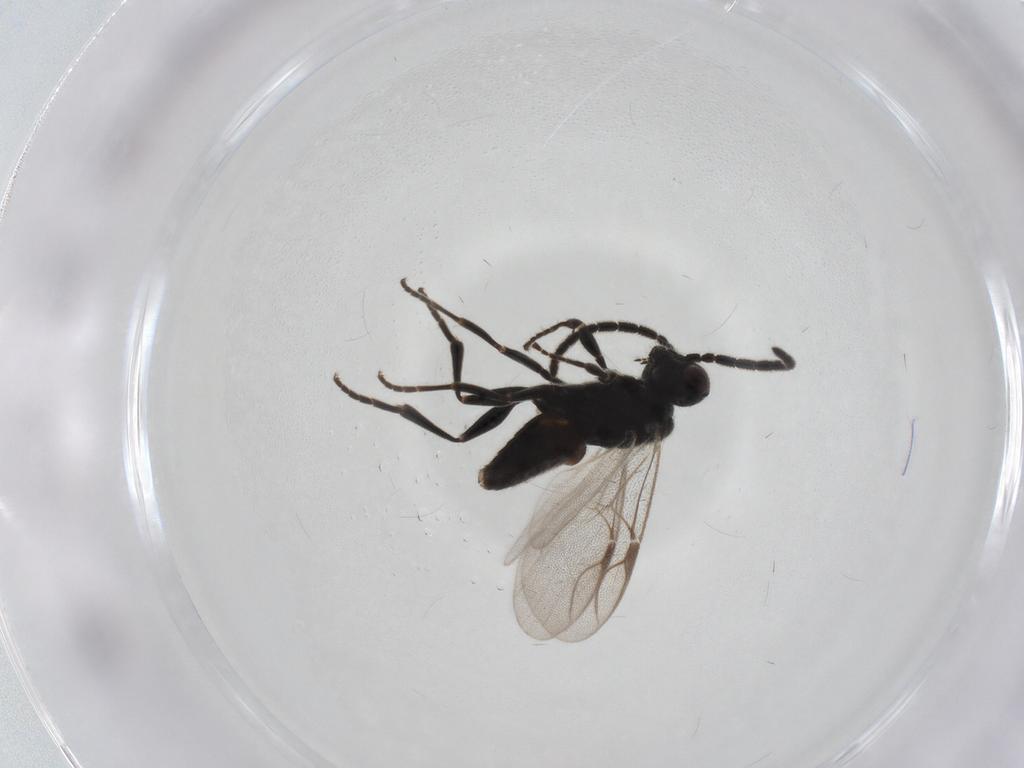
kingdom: Animalia
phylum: Arthropoda
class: Insecta
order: Hymenoptera
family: Dryinidae
